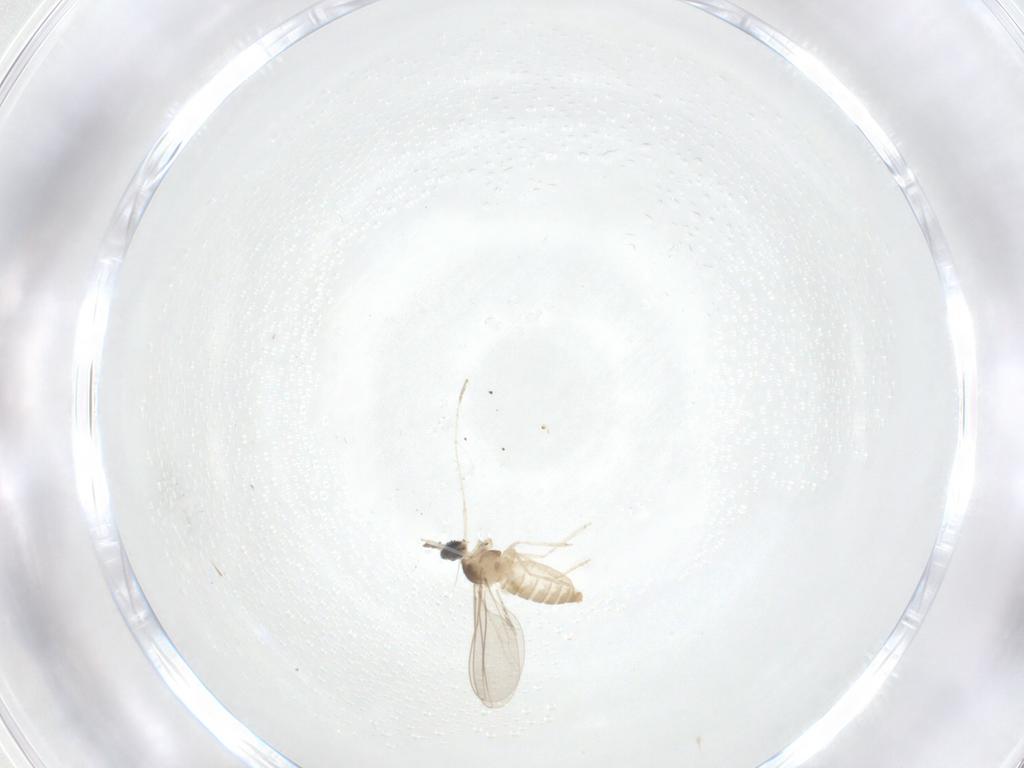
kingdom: Animalia
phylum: Arthropoda
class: Insecta
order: Diptera
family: Cecidomyiidae
